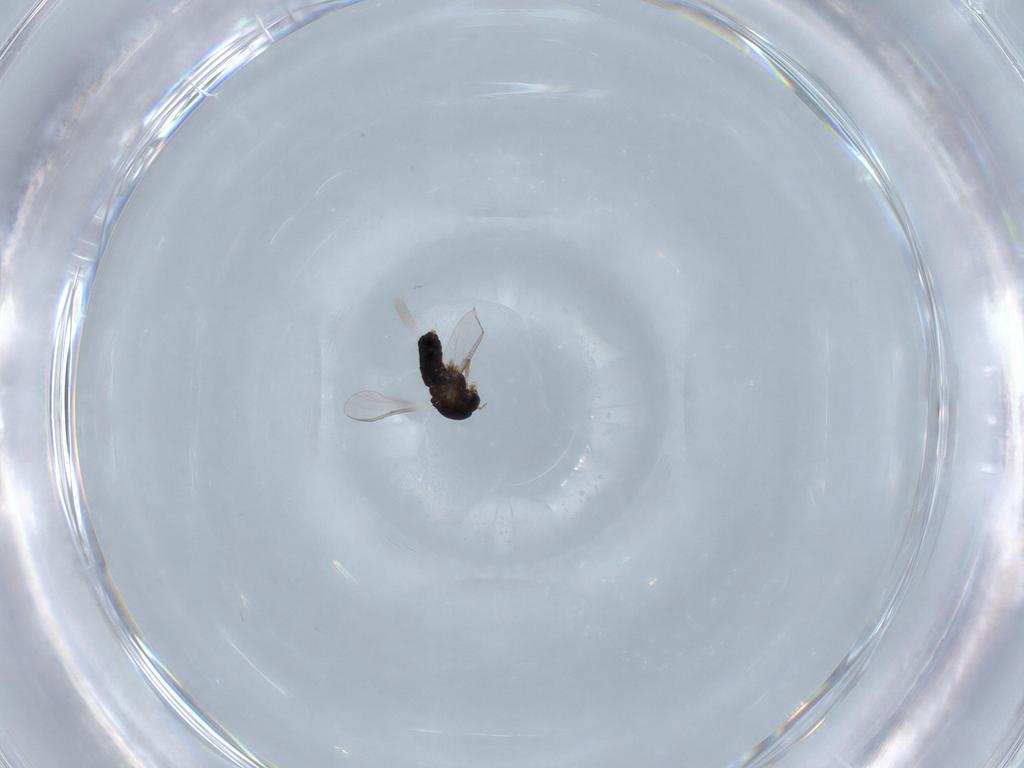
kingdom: Animalia
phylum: Arthropoda
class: Insecta
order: Diptera
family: Chironomidae
